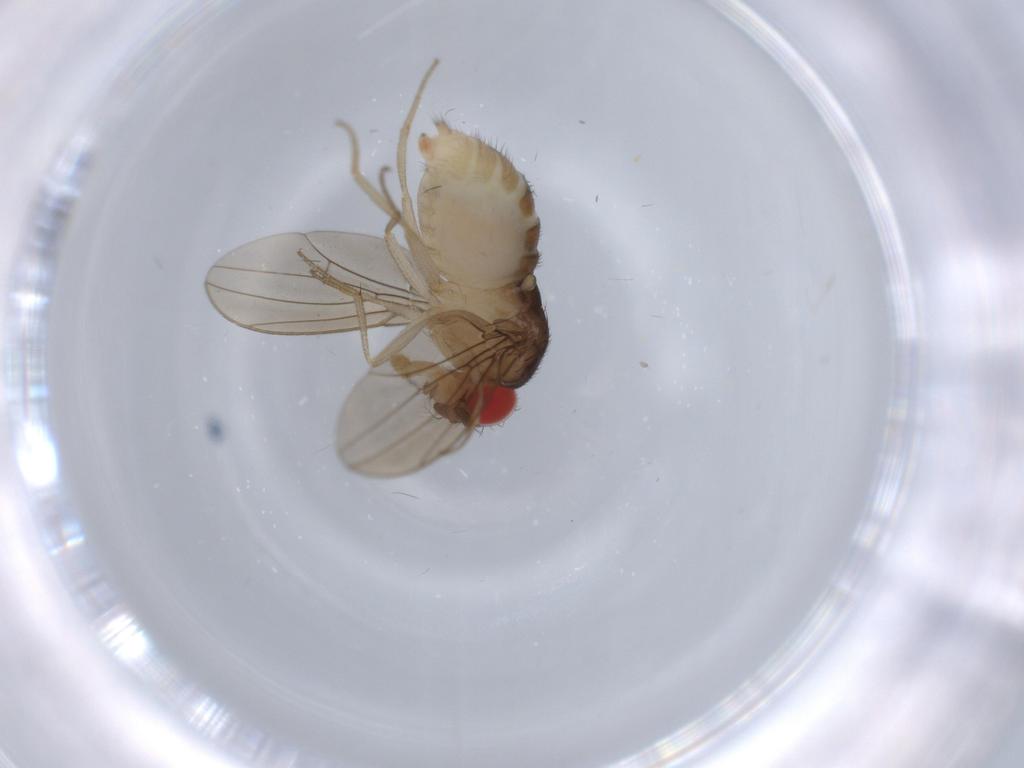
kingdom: Animalia
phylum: Arthropoda
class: Insecta
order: Diptera
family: Drosophilidae
